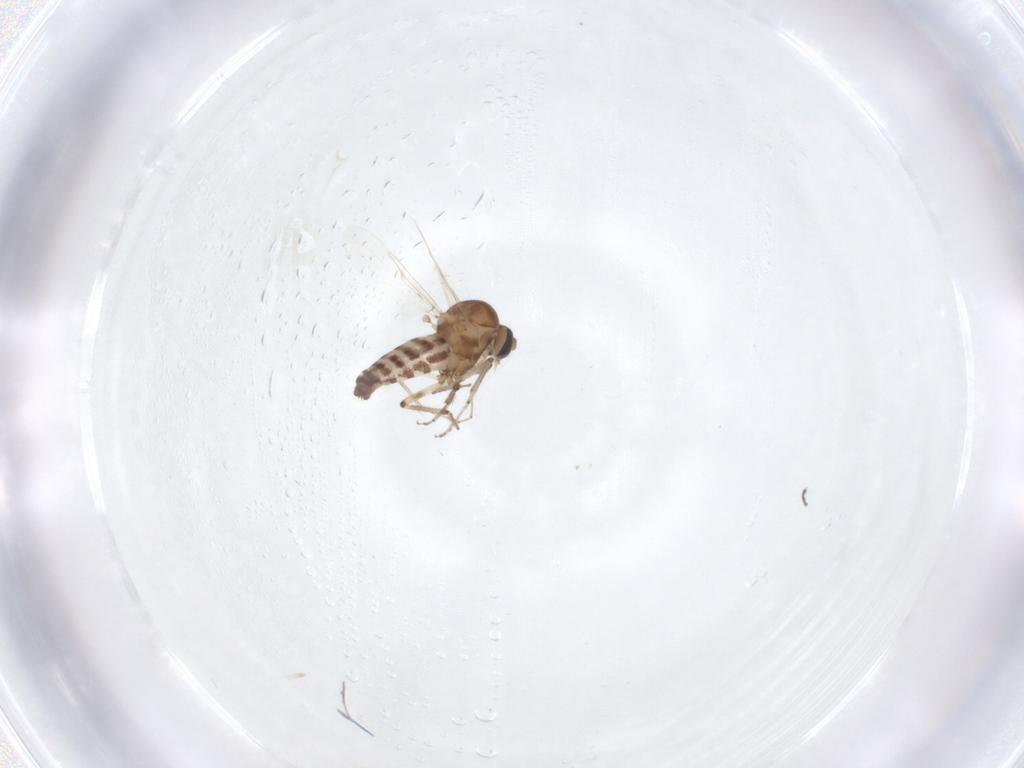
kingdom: Animalia
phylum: Arthropoda
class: Insecta
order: Diptera
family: Ceratopogonidae
